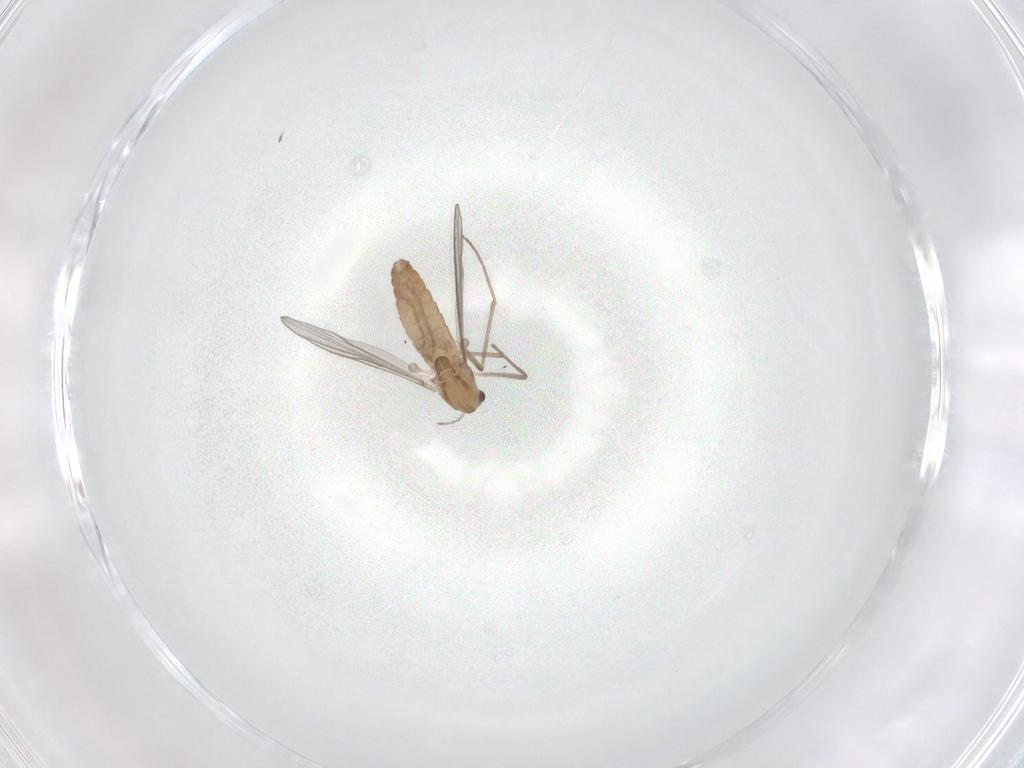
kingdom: Animalia
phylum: Arthropoda
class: Insecta
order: Diptera
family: Chironomidae
